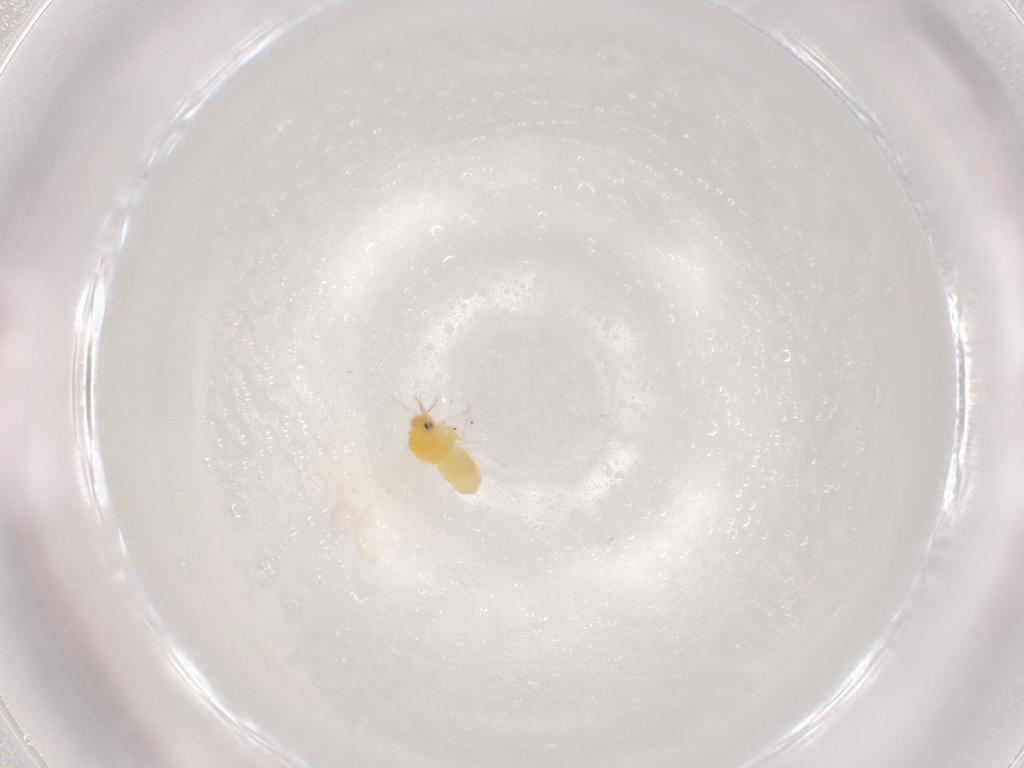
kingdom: Animalia
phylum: Arthropoda
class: Insecta
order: Hemiptera
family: Aleyrodidae
